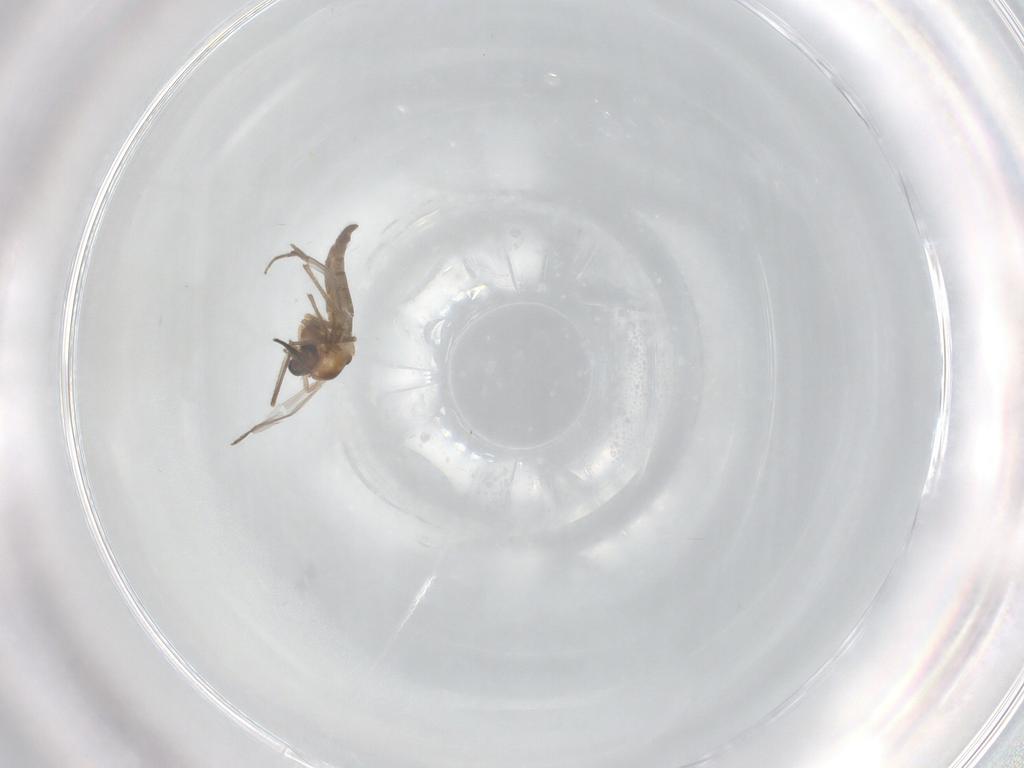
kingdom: Animalia
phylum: Arthropoda
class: Insecta
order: Diptera
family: Chironomidae
